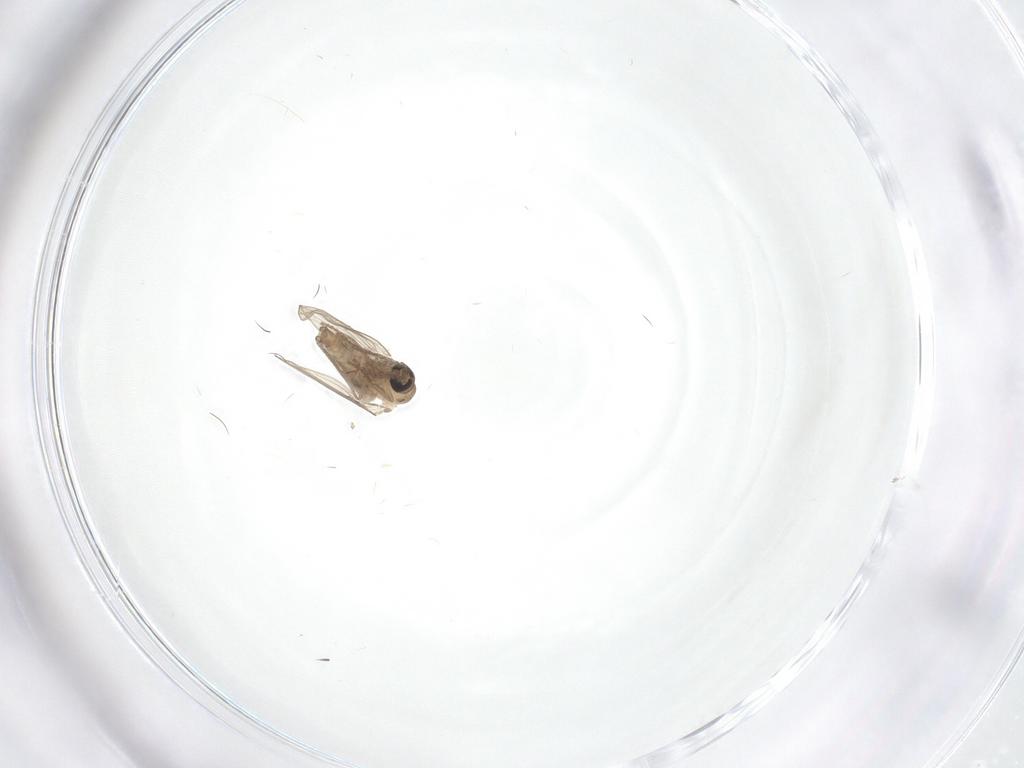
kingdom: Animalia
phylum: Arthropoda
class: Insecta
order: Diptera
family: Psychodidae
